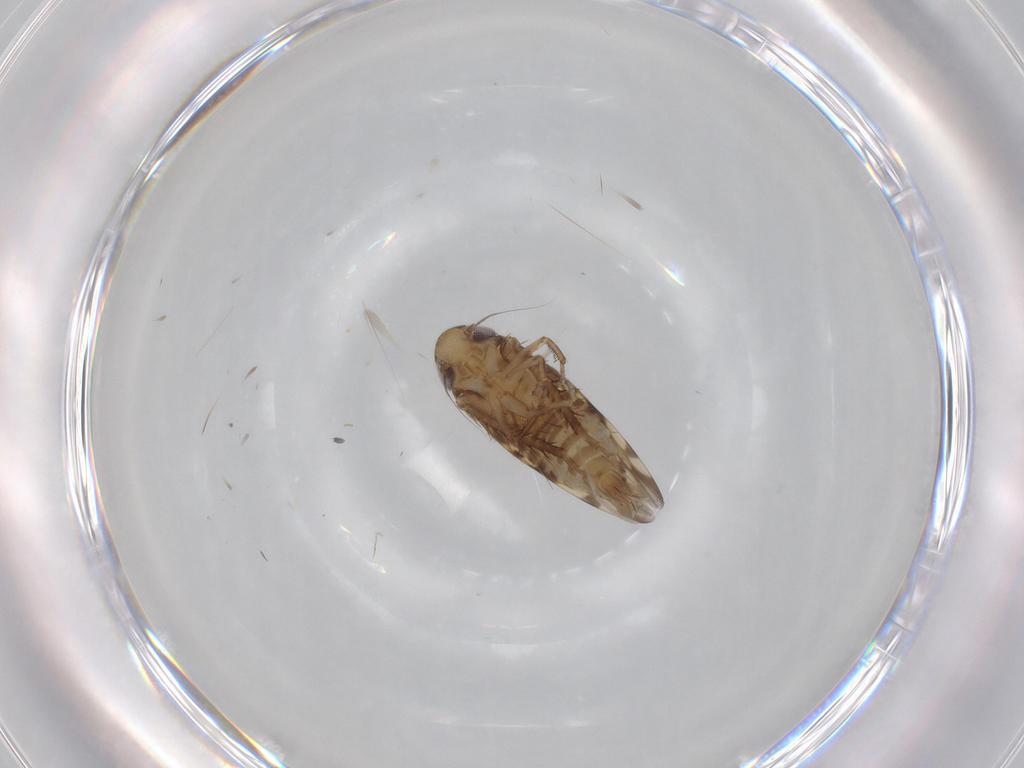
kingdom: Animalia
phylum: Arthropoda
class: Insecta
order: Hemiptera
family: Cicadellidae
